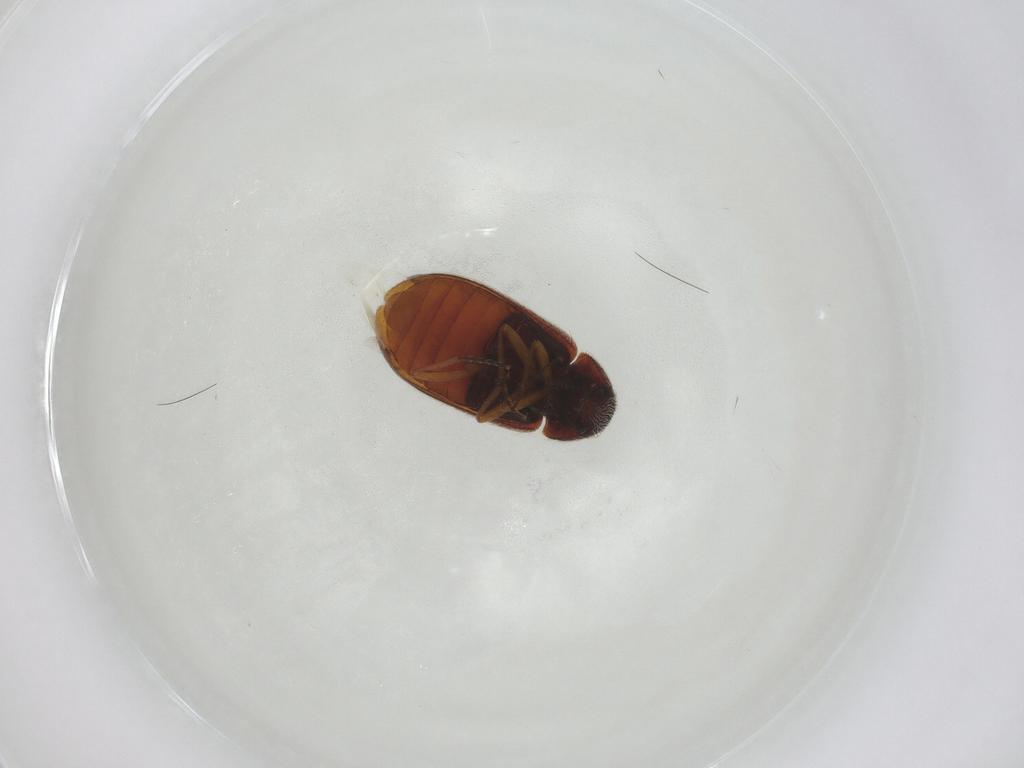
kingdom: Animalia
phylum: Arthropoda
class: Insecta
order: Coleoptera
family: Rhadalidae
